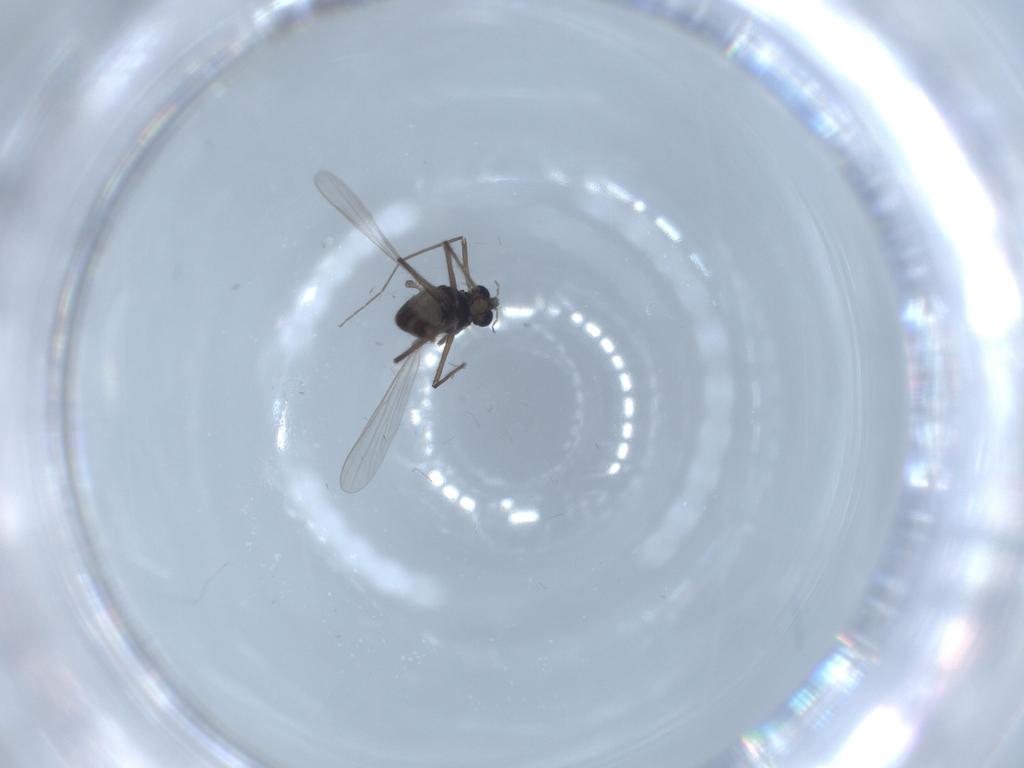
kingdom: Animalia
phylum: Arthropoda
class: Insecta
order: Diptera
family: Chironomidae
